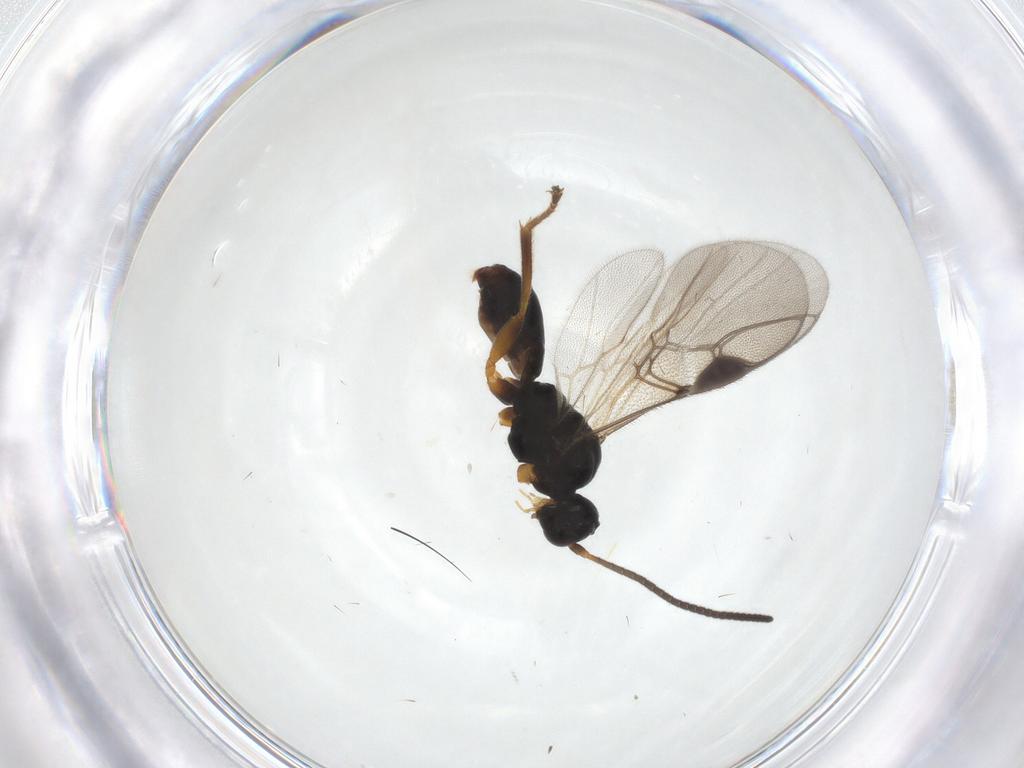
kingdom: Animalia
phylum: Arthropoda
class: Insecta
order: Hymenoptera
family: Braconidae
